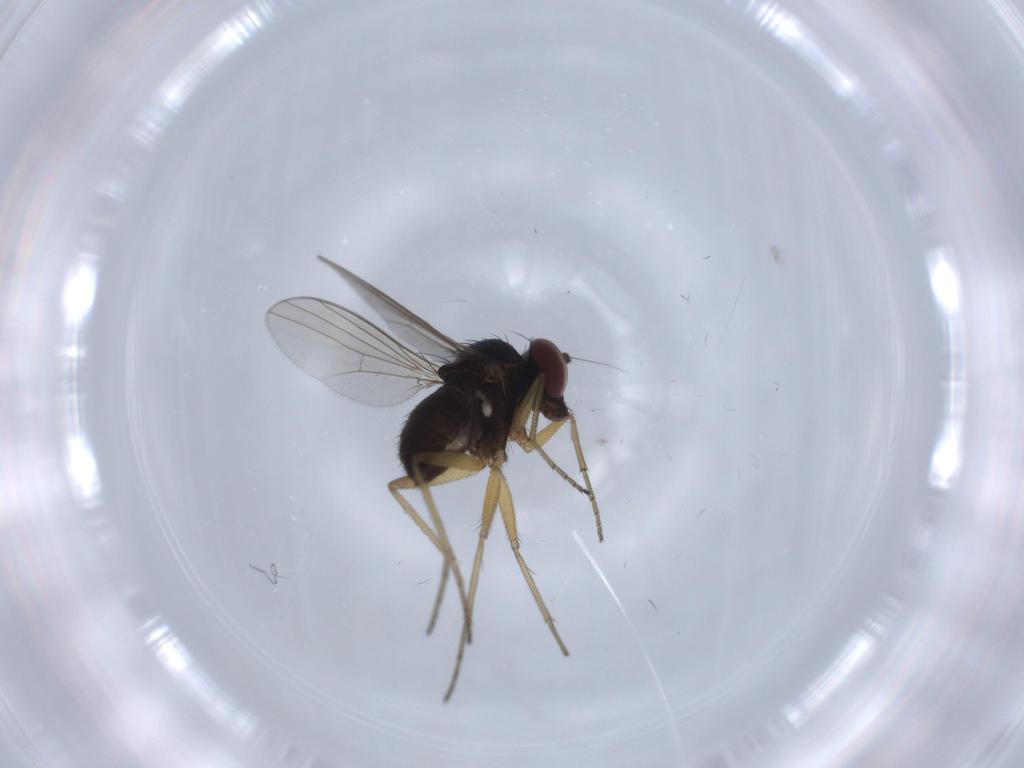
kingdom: Animalia
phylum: Arthropoda
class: Insecta
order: Diptera
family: Dolichopodidae
